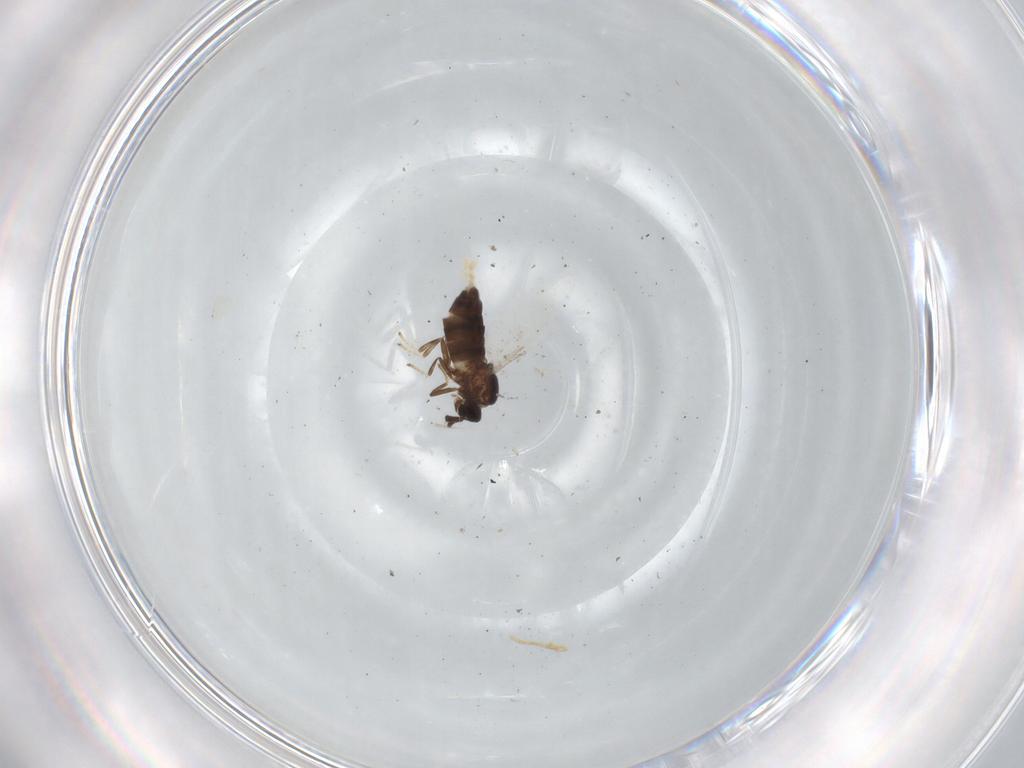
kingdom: Animalia
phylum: Arthropoda
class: Insecta
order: Diptera
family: Scatopsidae
